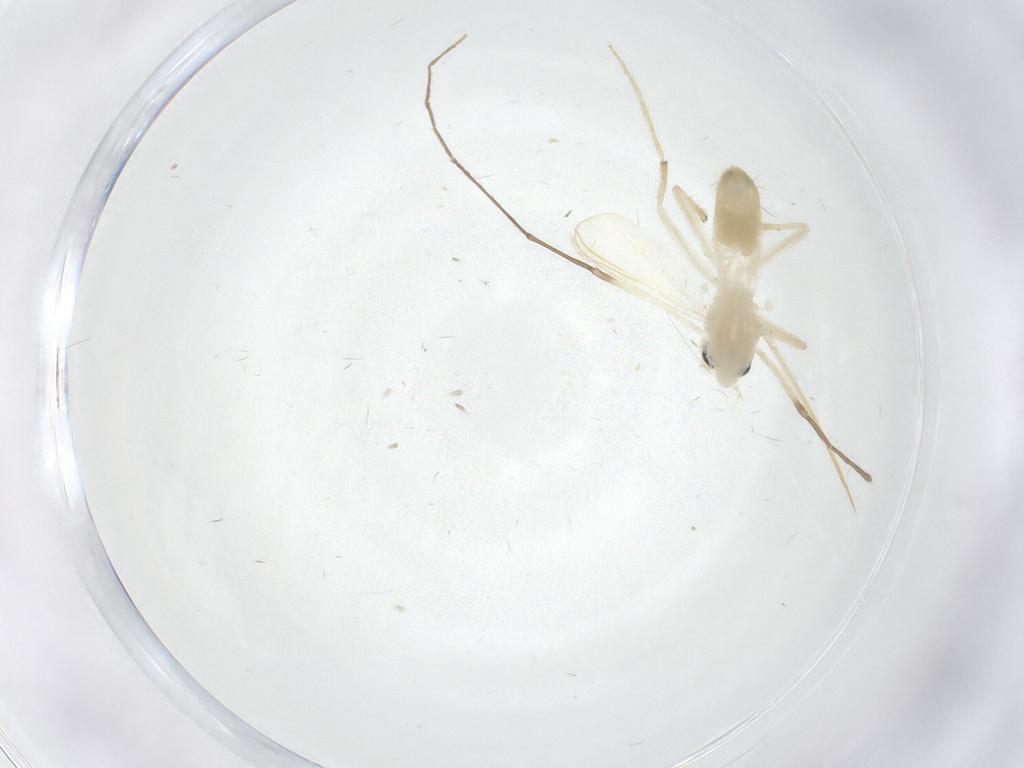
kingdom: Animalia
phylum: Arthropoda
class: Insecta
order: Diptera
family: Chironomidae
